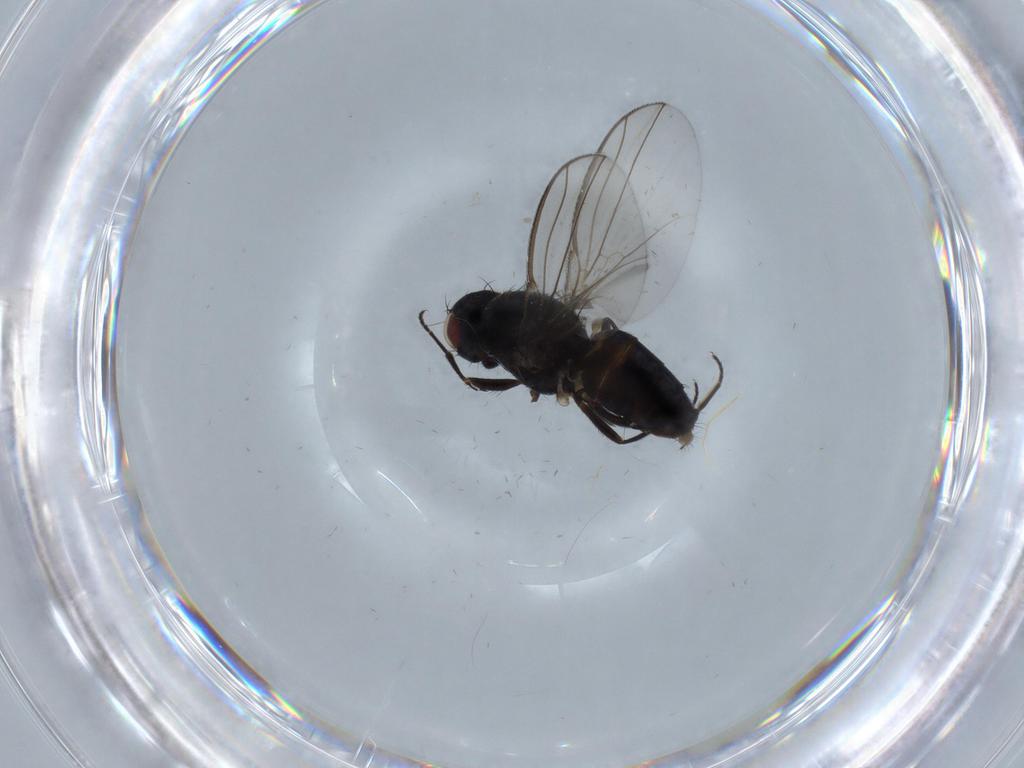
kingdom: Animalia
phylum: Arthropoda
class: Insecta
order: Diptera
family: Carnidae
